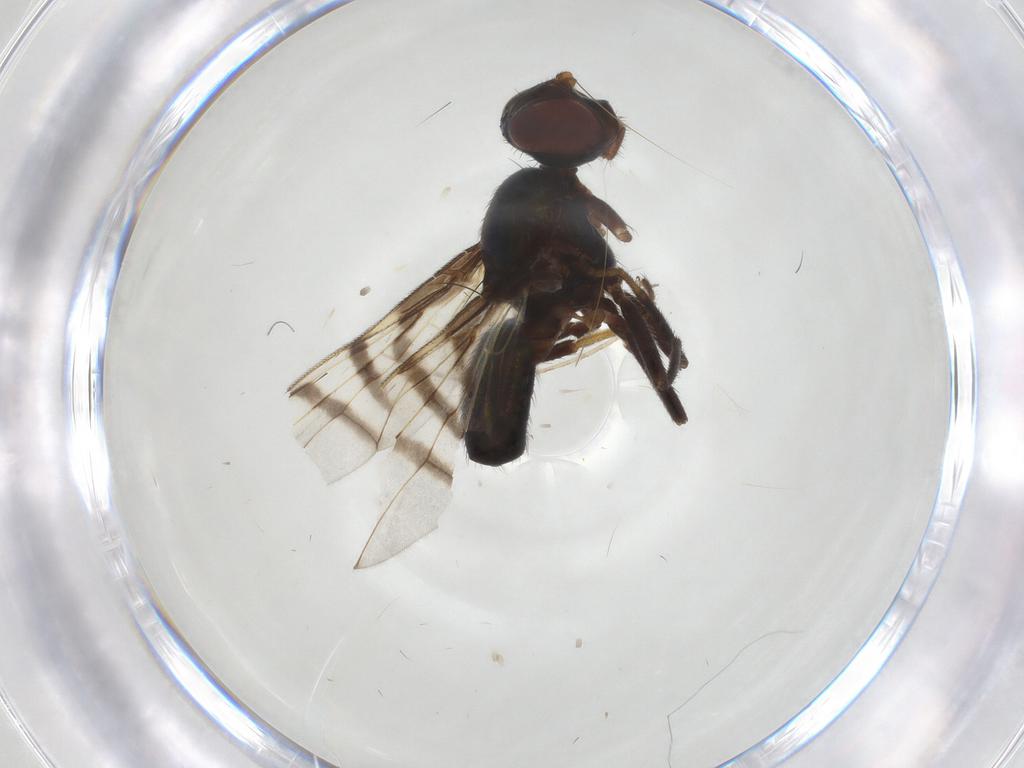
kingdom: Animalia
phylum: Arthropoda
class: Insecta
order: Diptera
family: Sciaridae
